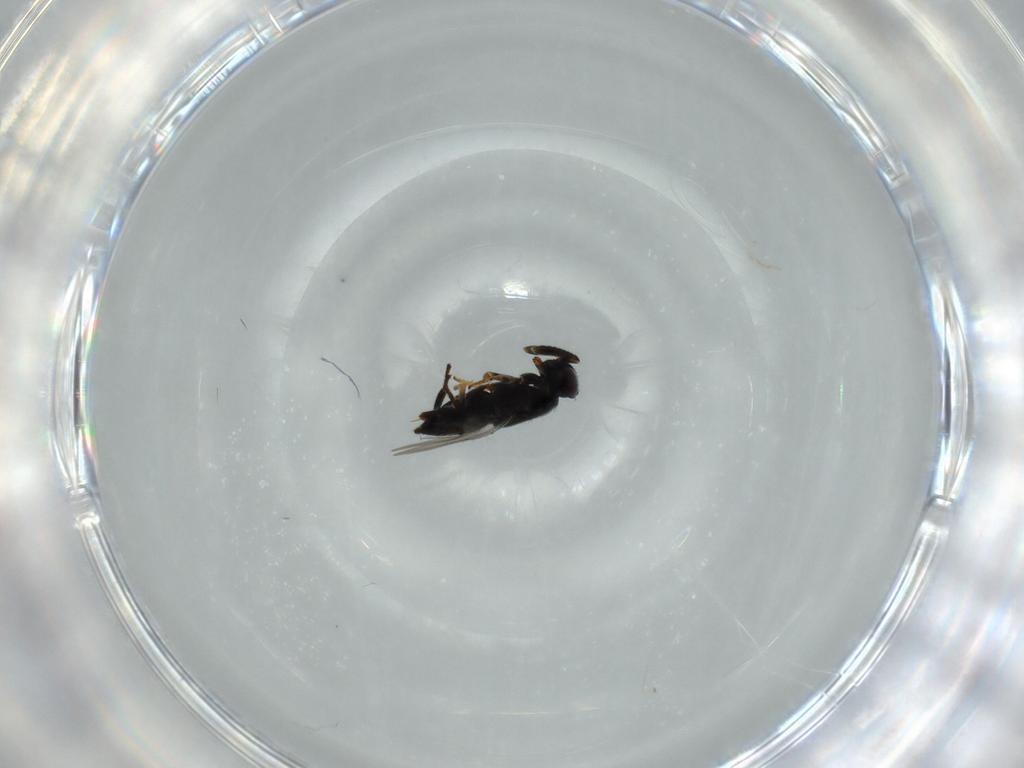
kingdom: Animalia
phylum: Arthropoda
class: Insecta
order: Hymenoptera
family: Encyrtidae
